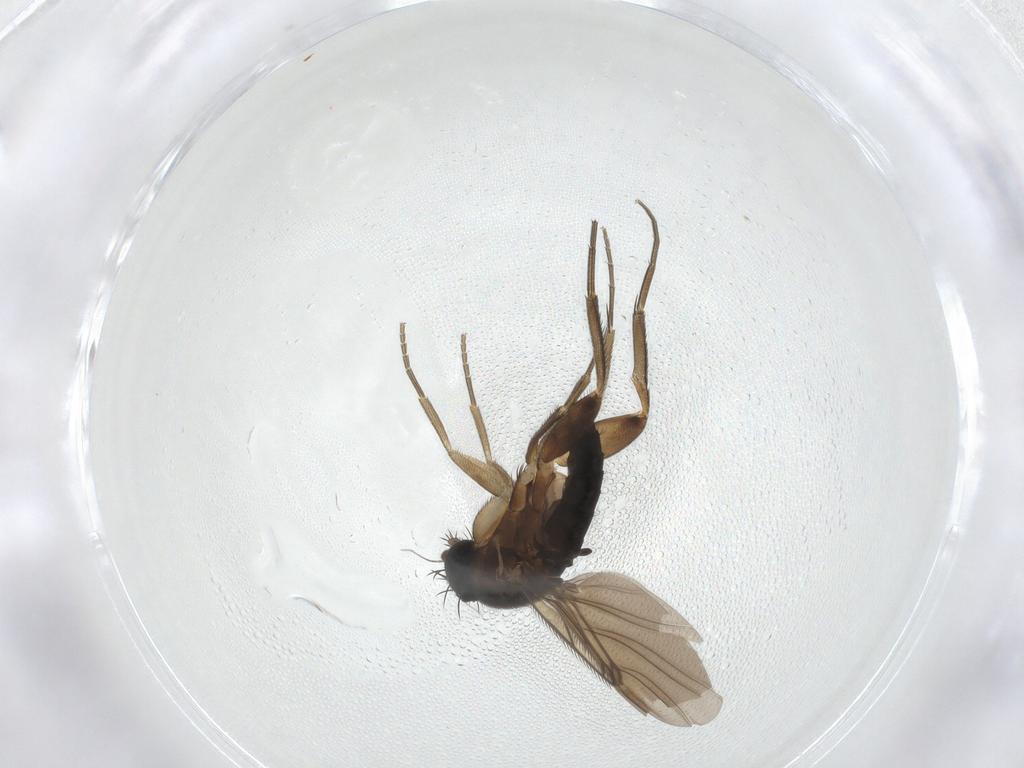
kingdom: Animalia
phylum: Arthropoda
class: Insecta
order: Diptera
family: Phoridae
